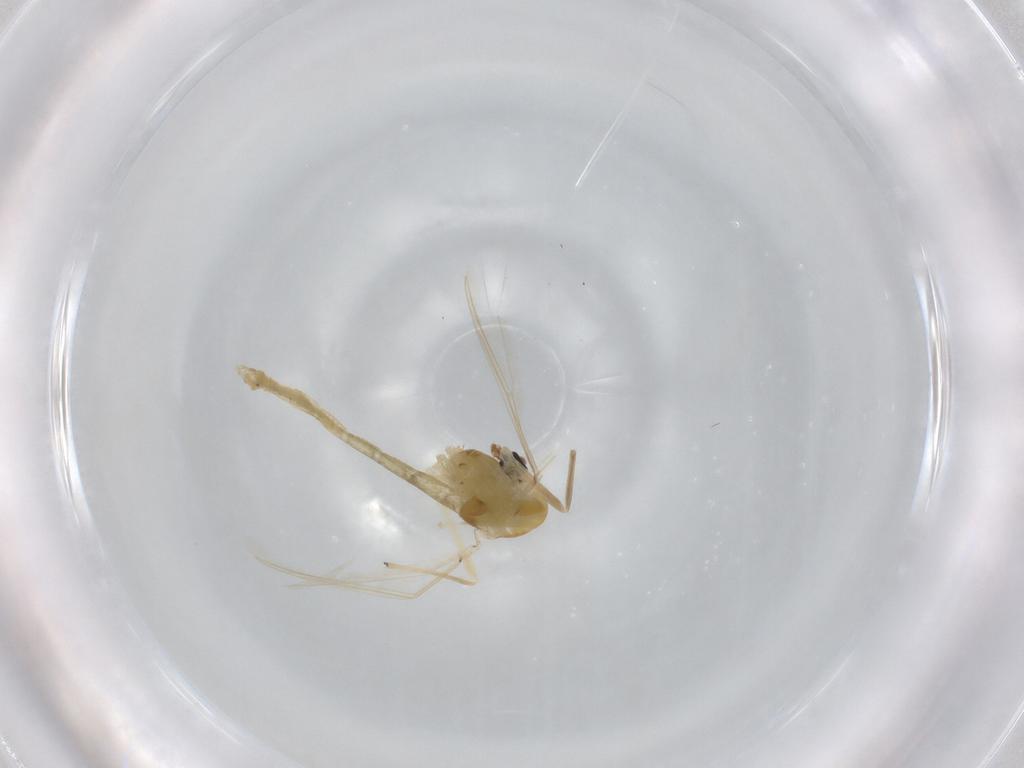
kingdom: Animalia
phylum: Arthropoda
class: Insecta
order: Diptera
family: Chironomidae
